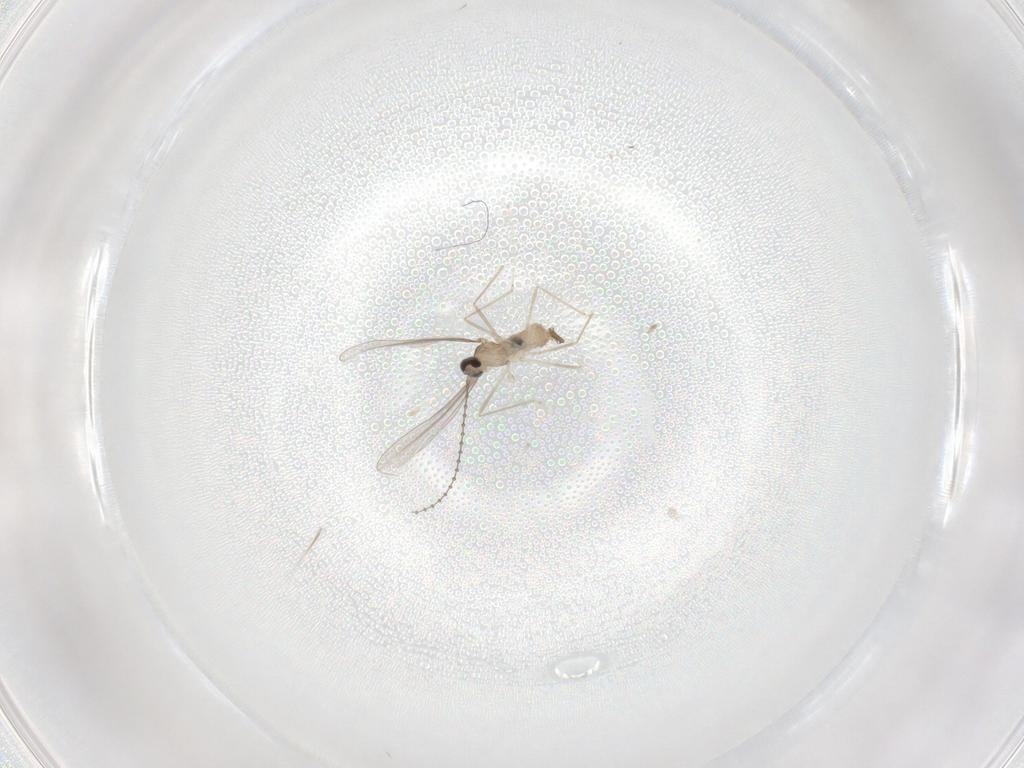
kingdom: Animalia
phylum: Arthropoda
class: Insecta
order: Diptera
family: Cecidomyiidae
